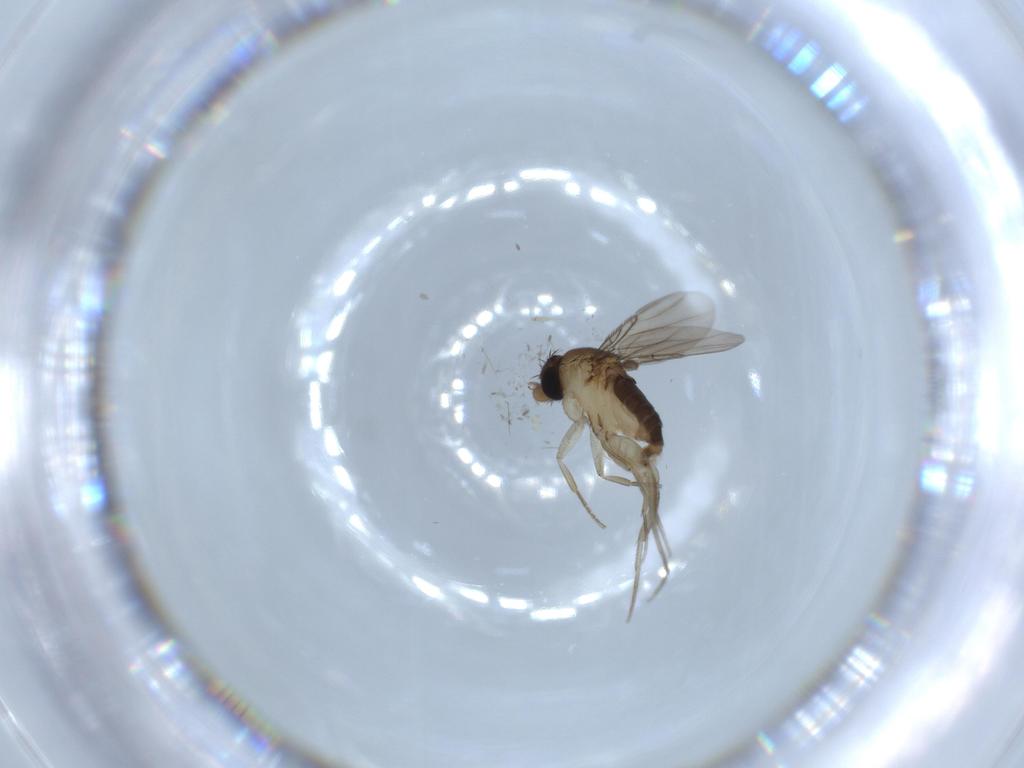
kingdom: Animalia
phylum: Arthropoda
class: Insecta
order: Diptera
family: Phoridae
